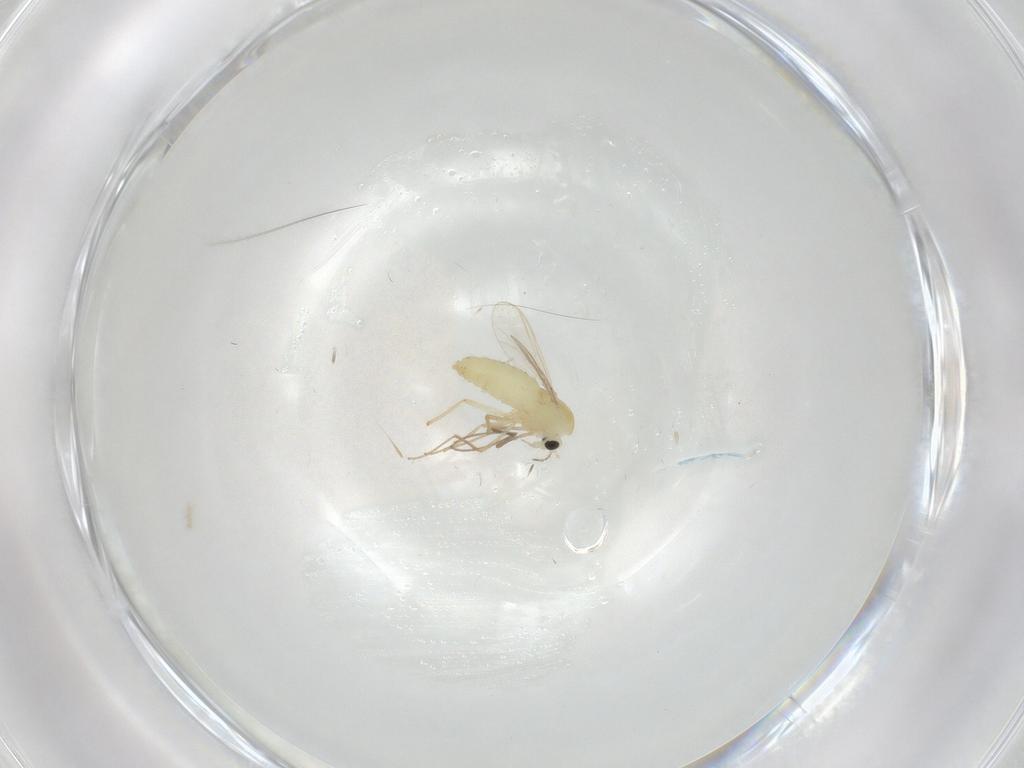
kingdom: Animalia
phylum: Arthropoda
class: Insecta
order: Diptera
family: Chironomidae
